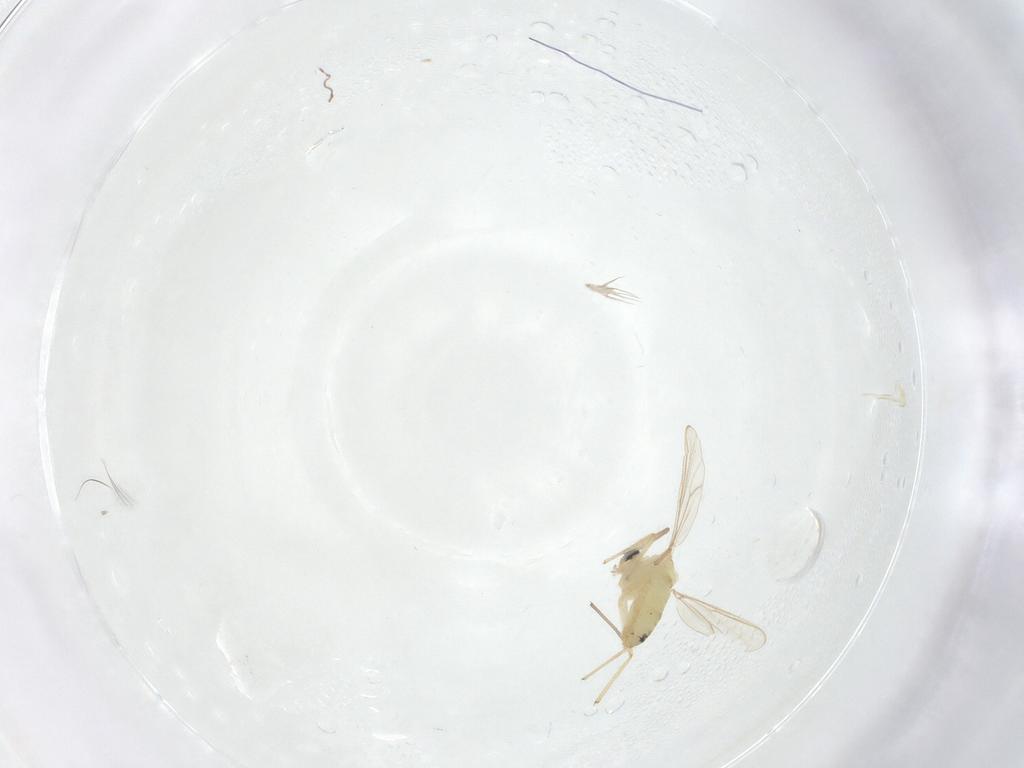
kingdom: Animalia
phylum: Arthropoda
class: Insecta
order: Diptera
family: Chironomidae
